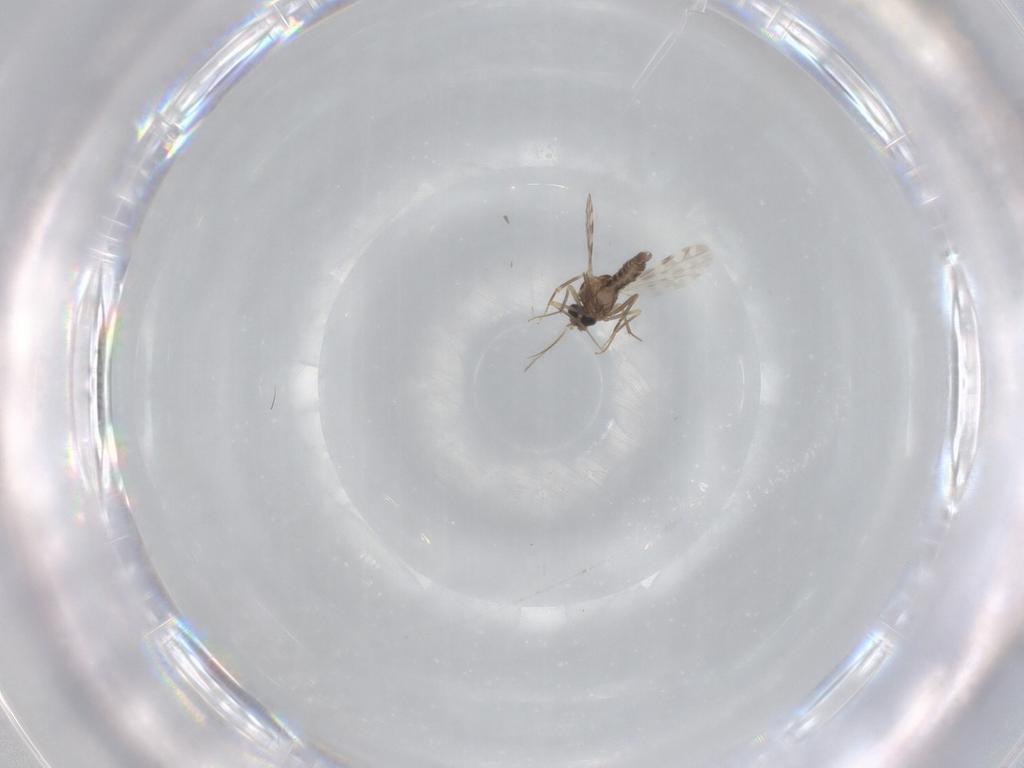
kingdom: Animalia
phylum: Arthropoda
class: Insecta
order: Diptera
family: Ceratopogonidae
